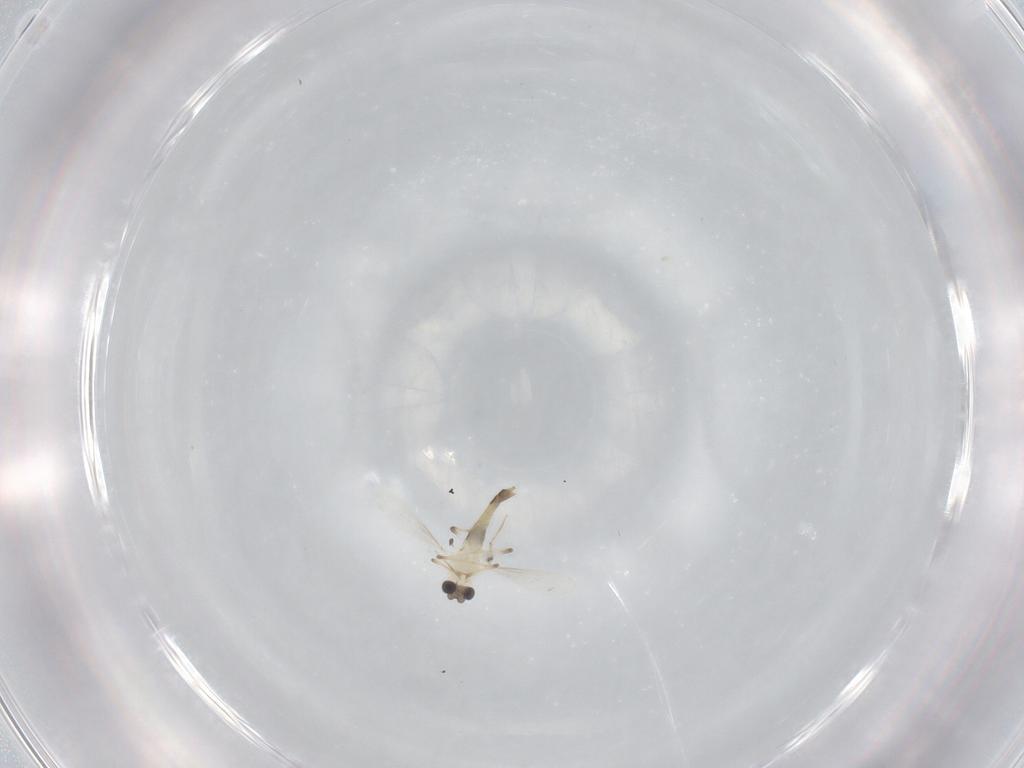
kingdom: Animalia
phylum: Arthropoda
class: Insecta
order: Diptera
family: Chironomidae
